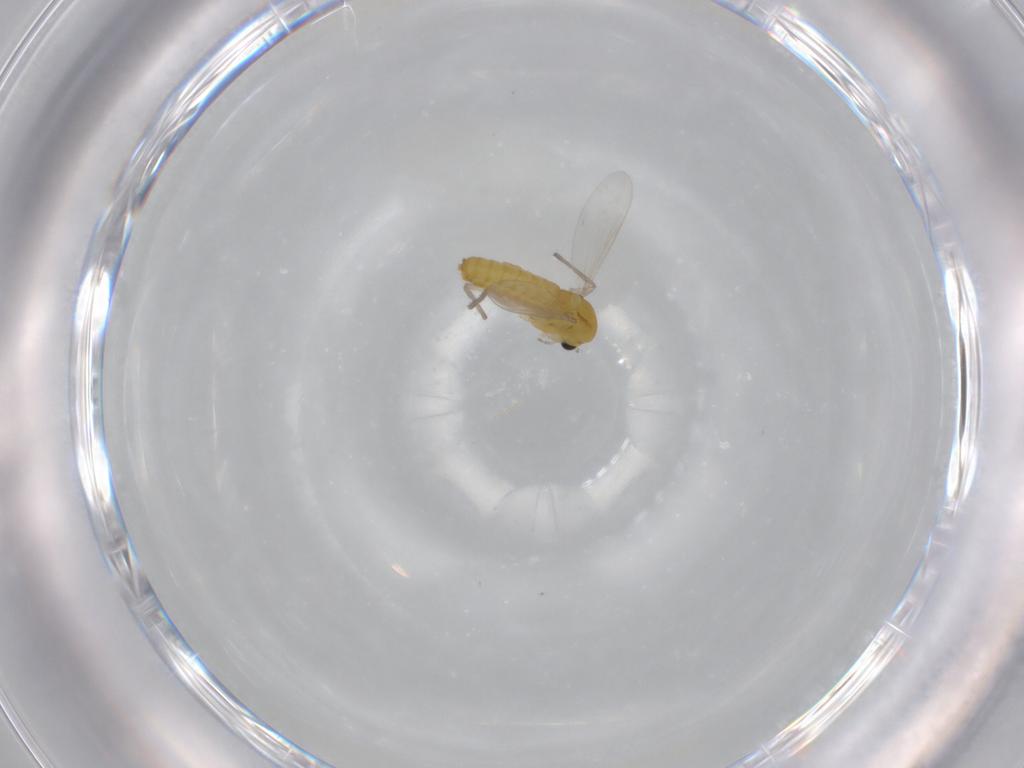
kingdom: Animalia
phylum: Arthropoda
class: Insecta
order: Diptera
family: Chironomidae
